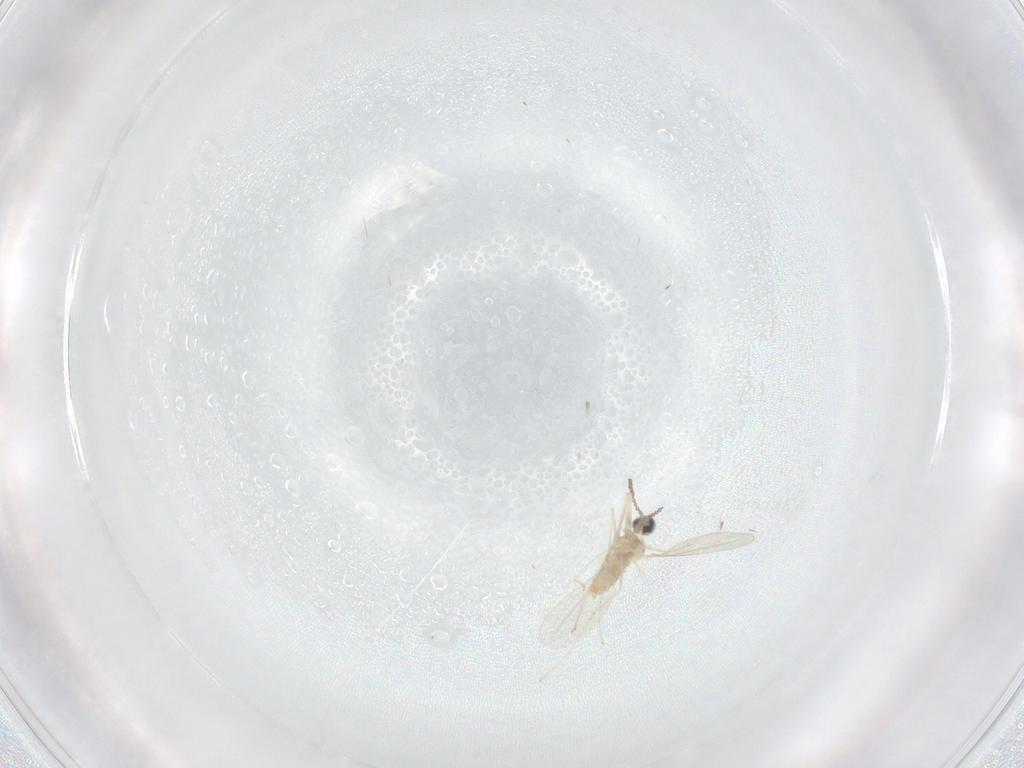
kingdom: Animalia
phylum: Arthropoda
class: Insecta
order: Diptera
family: Cecidomyiidae
